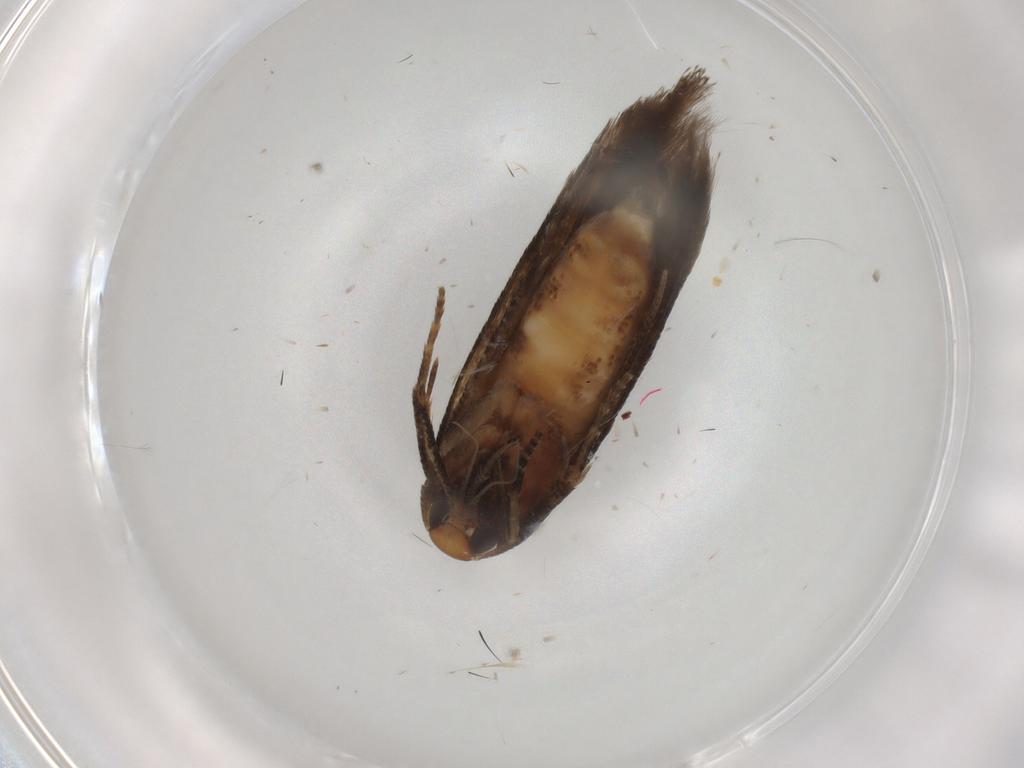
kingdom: Animalia
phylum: Arthropoda
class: Insecta
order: Lepidoptera
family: Cosmopterigidae
